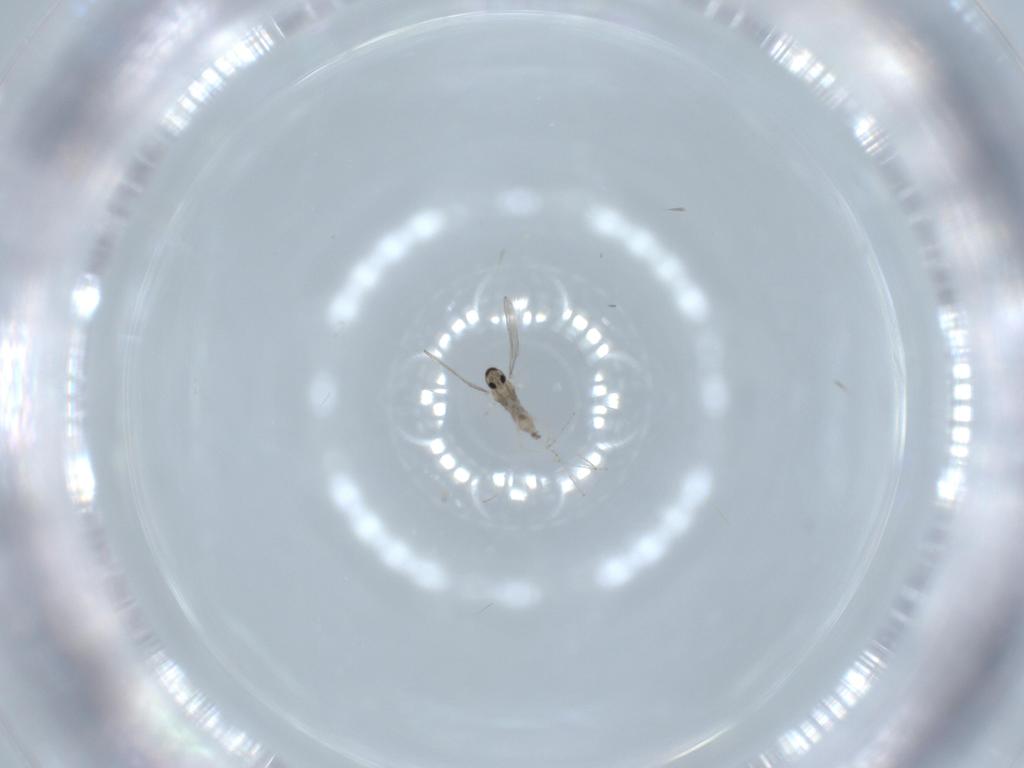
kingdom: Animalia
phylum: Arthropoda
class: Insecta
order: Diptera
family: Cecidomyiidae
